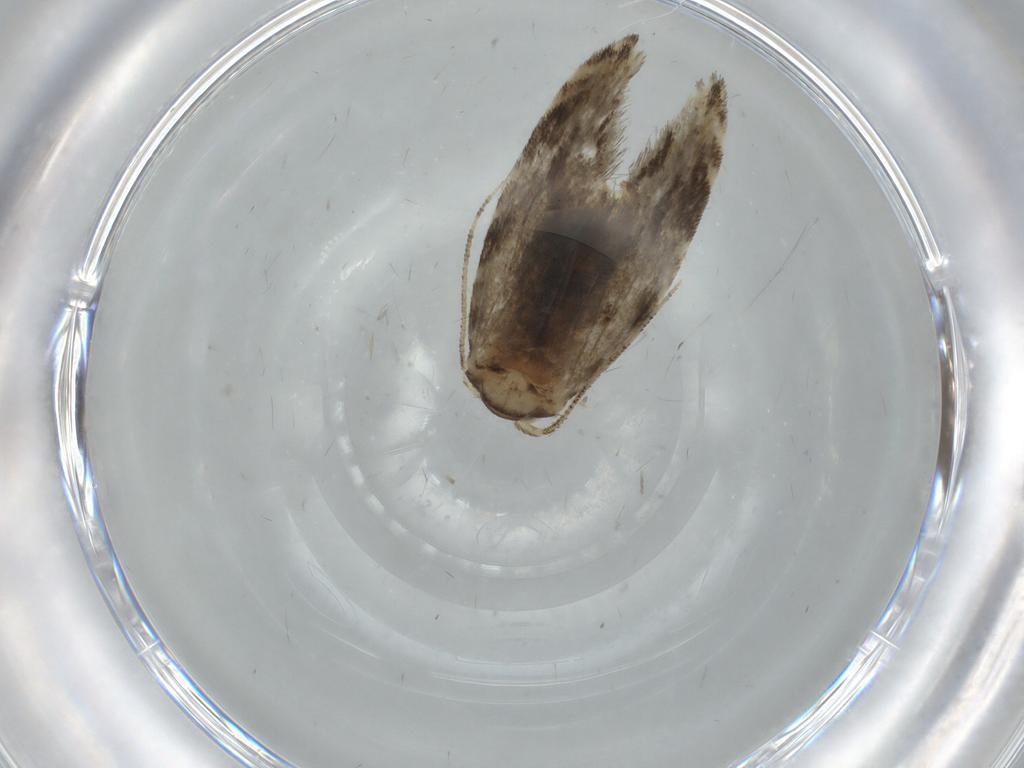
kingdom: Animalia
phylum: Arthropoda
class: Insecta
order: Lepidoptera
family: Tineidae
